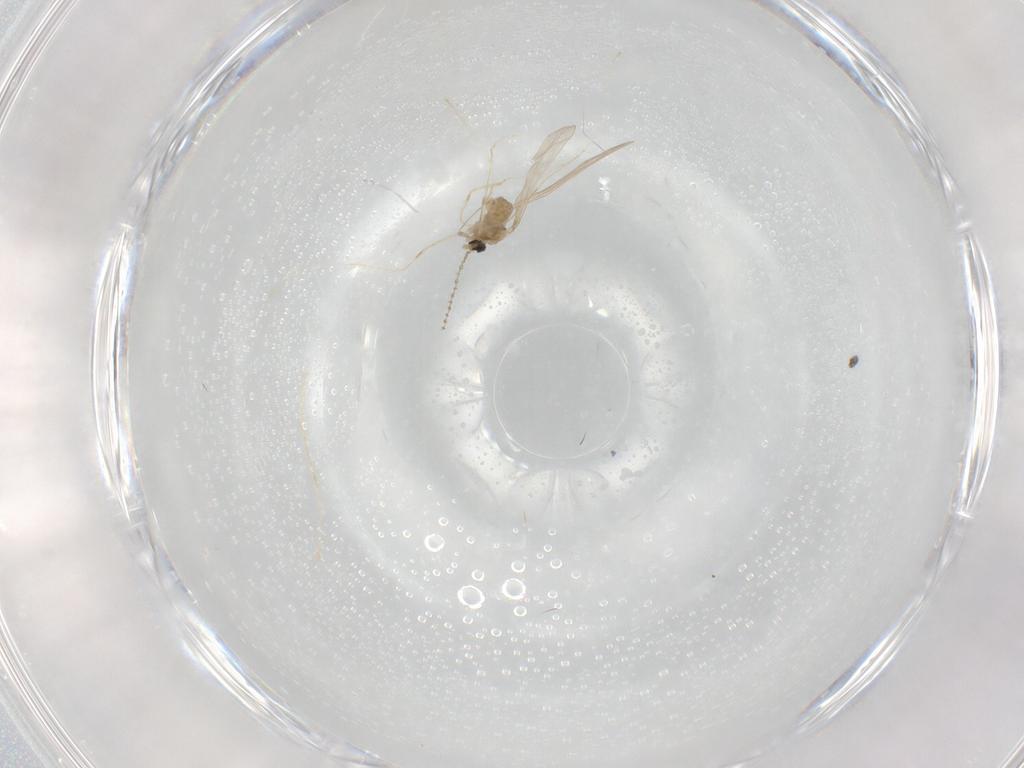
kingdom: Animalia
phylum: Arthropoda
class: Insecta
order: Diptera
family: Cecidomyiidae
